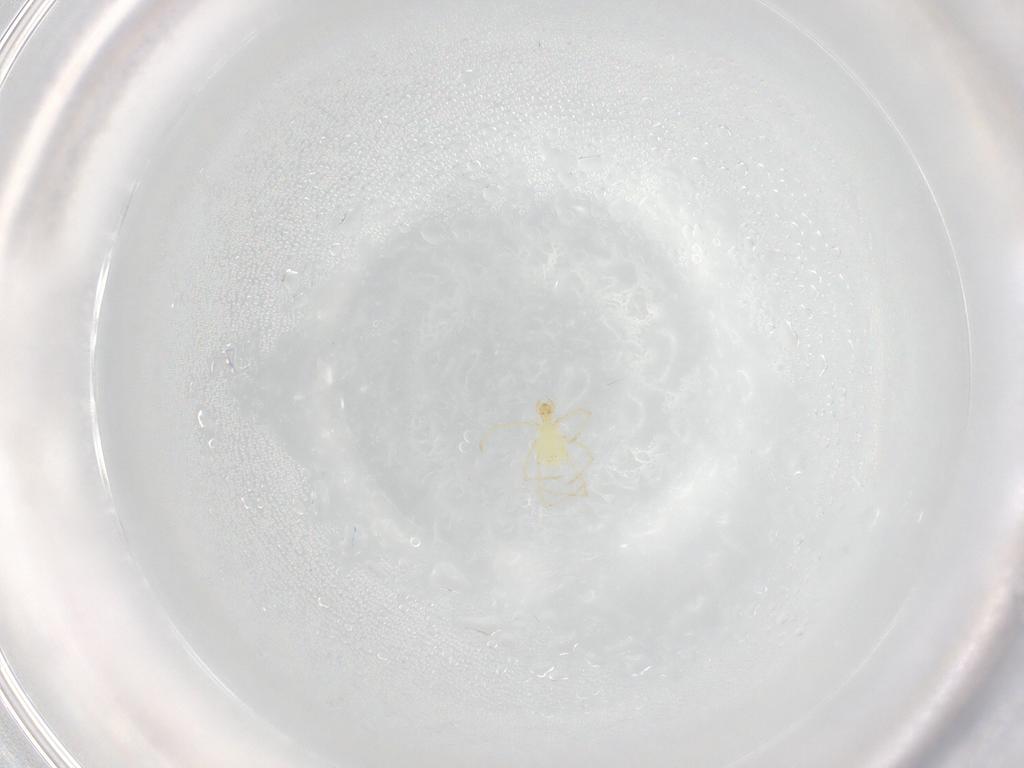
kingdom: Animalia
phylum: Arthropoda
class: Arachnida
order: Trombidiformes
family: Erythraeidae
